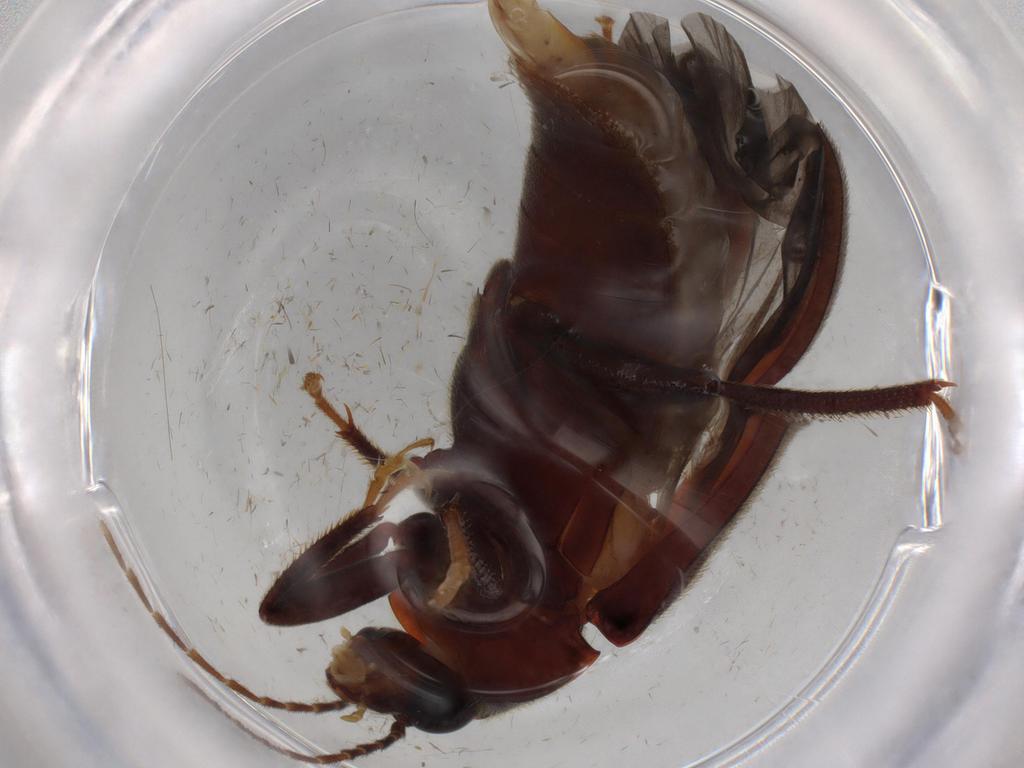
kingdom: Animalia
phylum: Arthropoda
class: Insecta
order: Coleoptera
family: Ptilodactylidae
